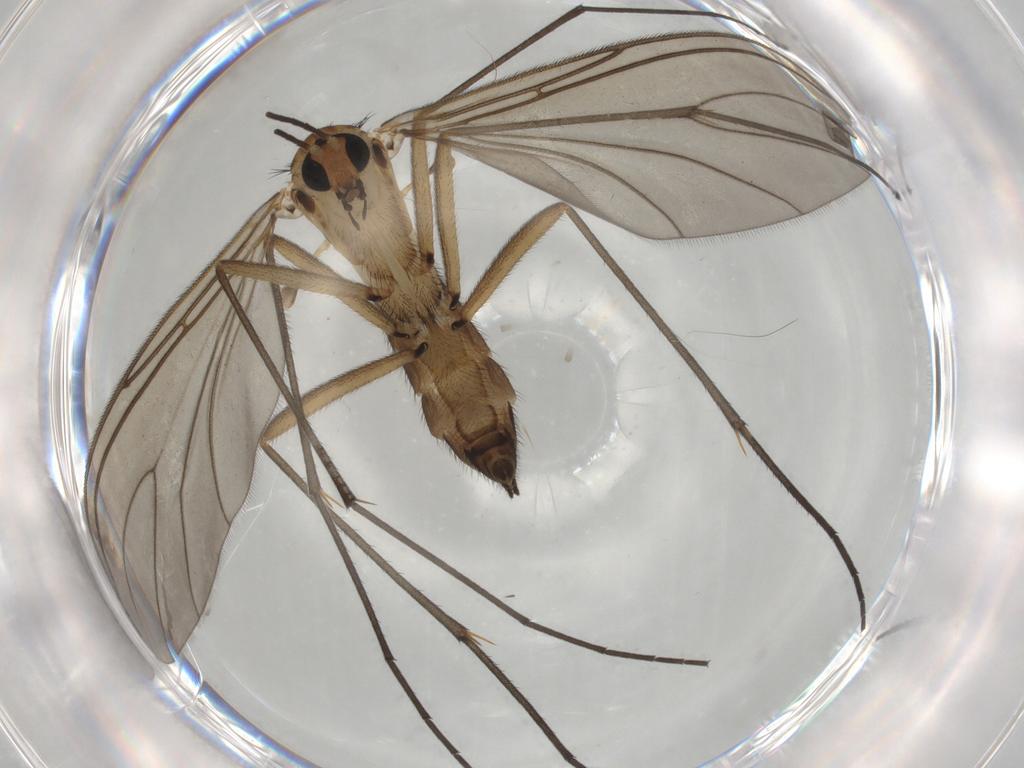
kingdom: Animalia
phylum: Arthropoda
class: Insecta
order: Diptera
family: Sciaridae
